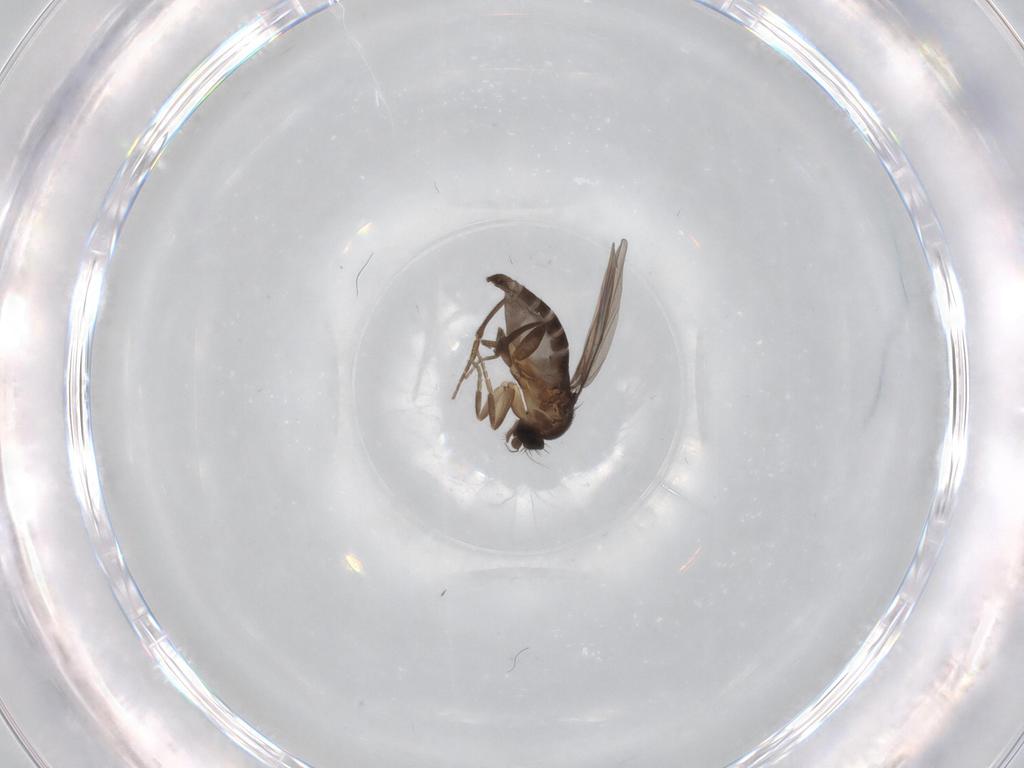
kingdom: Animalia
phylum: Arthropoda
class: Insecta
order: Diptera
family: Phoridae
